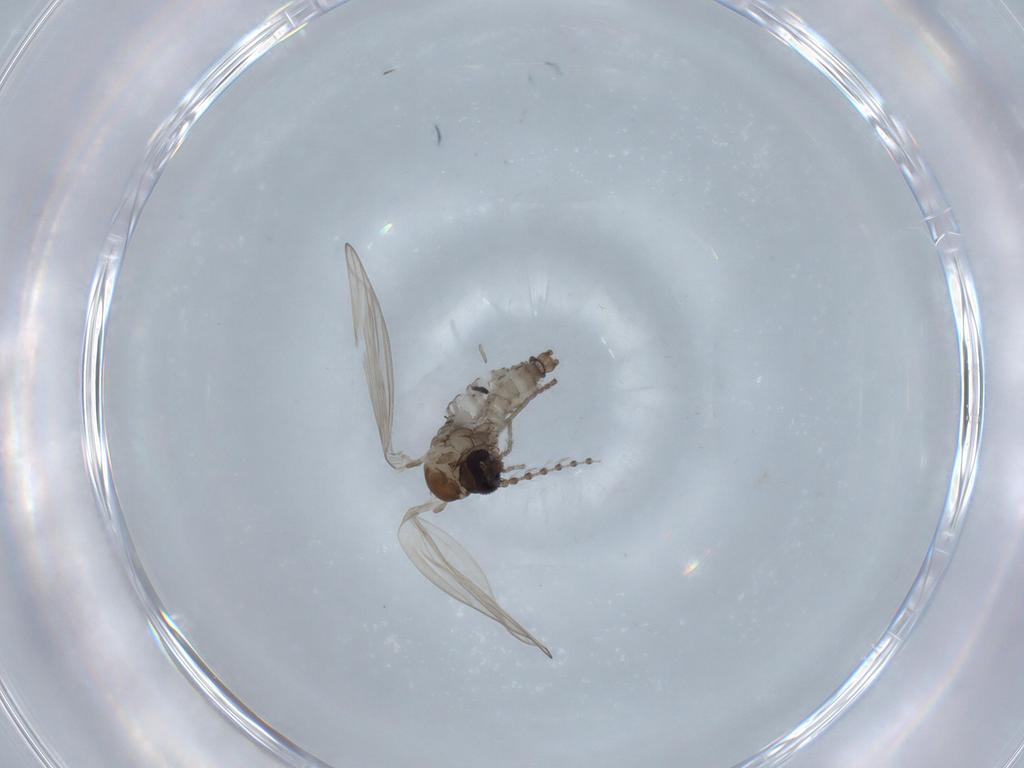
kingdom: Animalia
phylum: Arthropoda
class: Insecta
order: Diptera
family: Psychodidae
